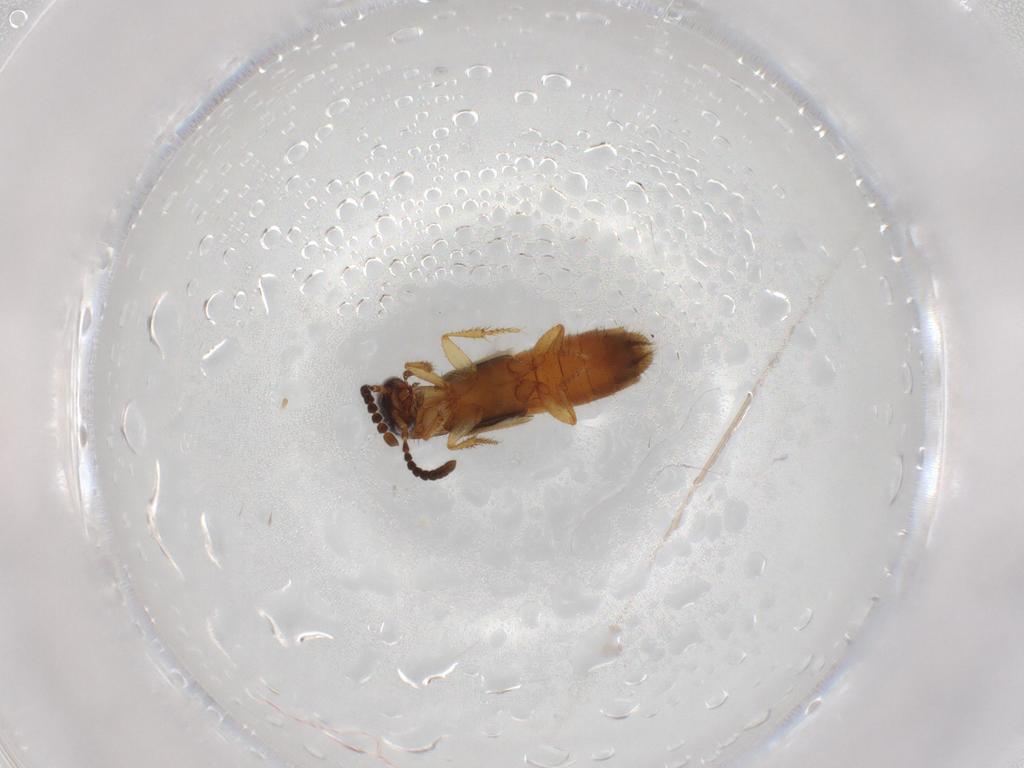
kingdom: Animalia
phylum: Arthropoda
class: Insecta
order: Coleoptera
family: Staphylinidae
